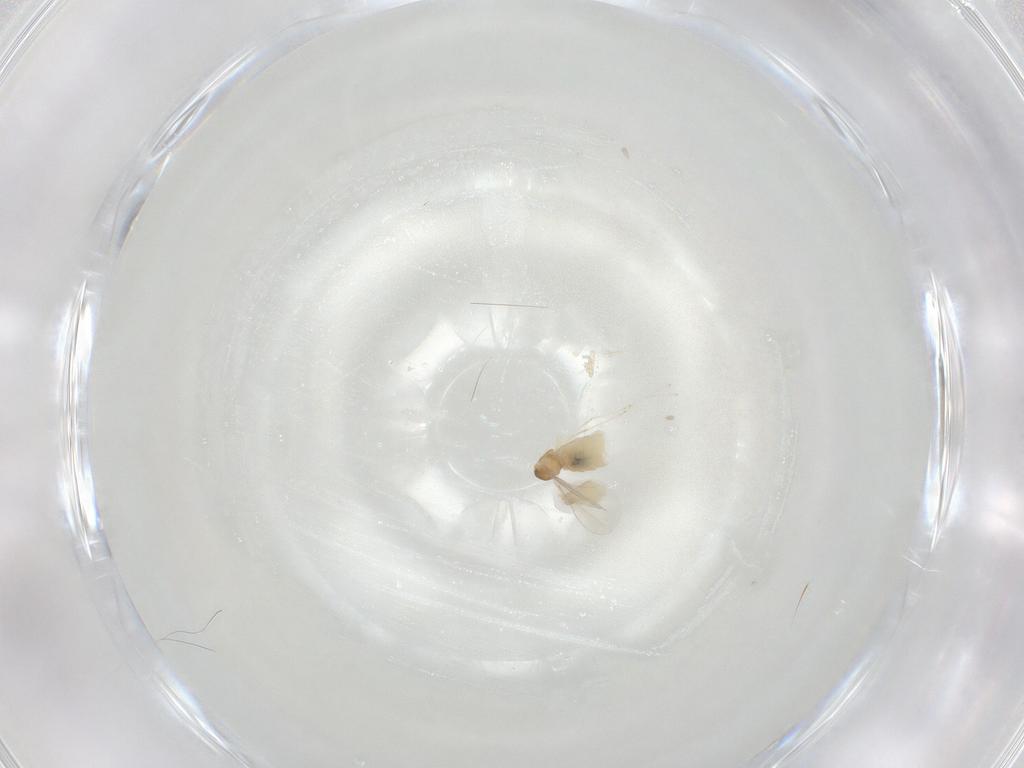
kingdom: Animalia
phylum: Arthropoda
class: Insecta
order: Diptera
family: Cecidomyiidae
